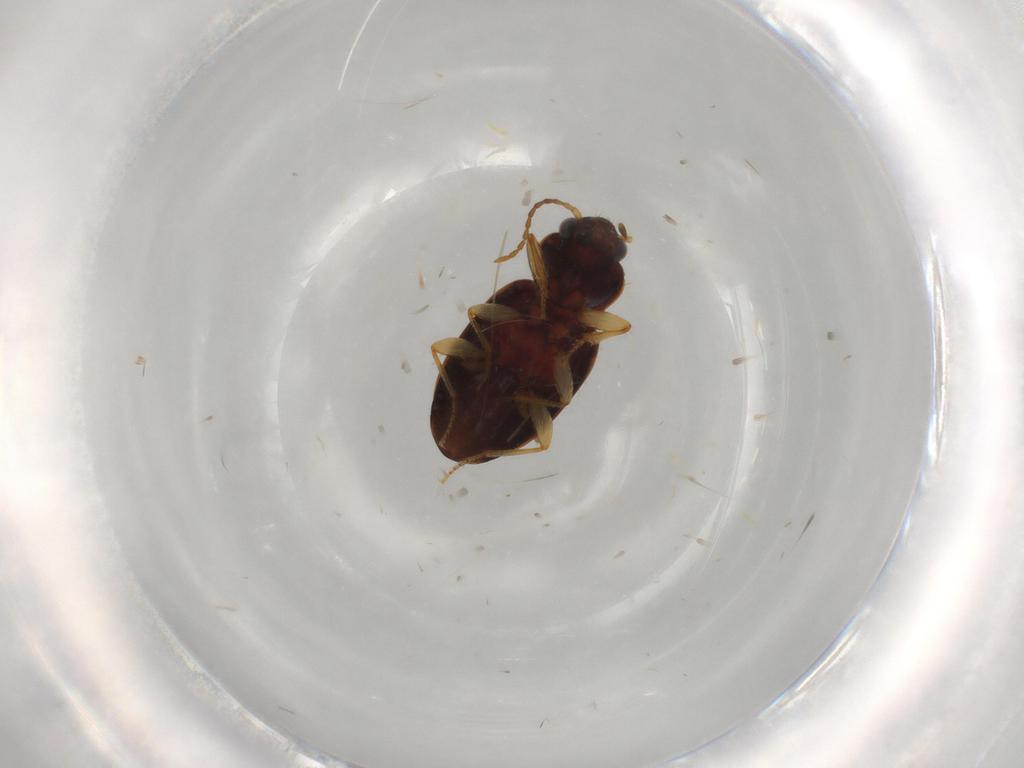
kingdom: Animalia
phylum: Arthropoda
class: Insecta
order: Coleoptera
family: Carabidae
